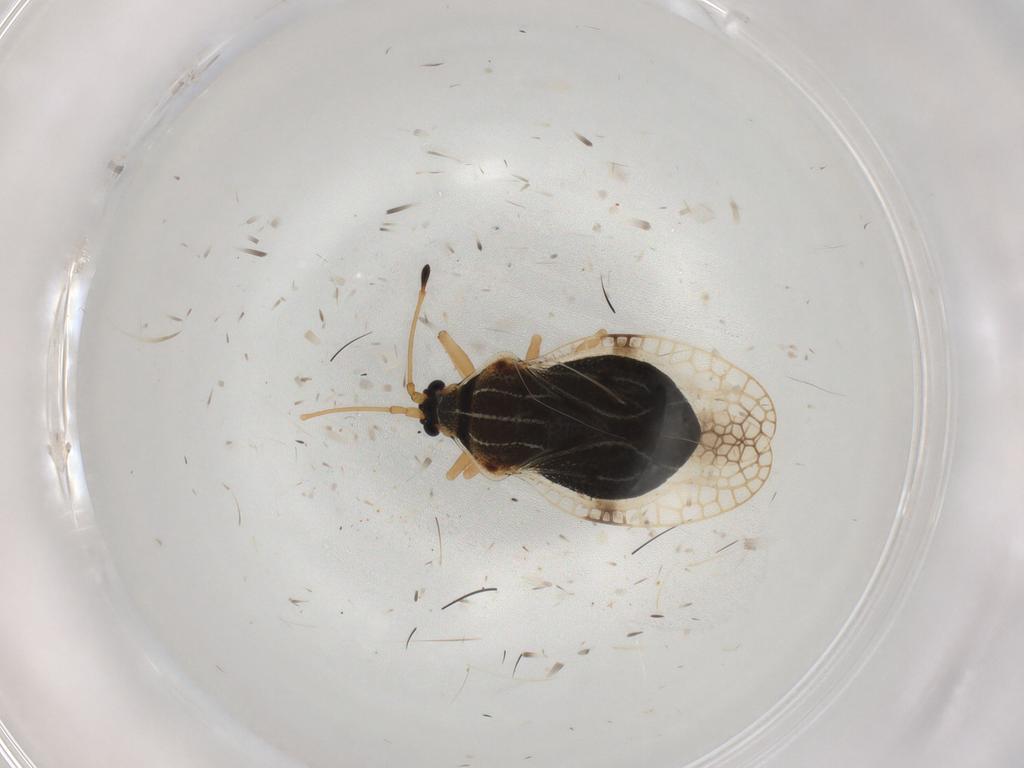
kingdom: Animalia
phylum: Arthropoda
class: Insecta
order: Hemiptera
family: Tingidae
